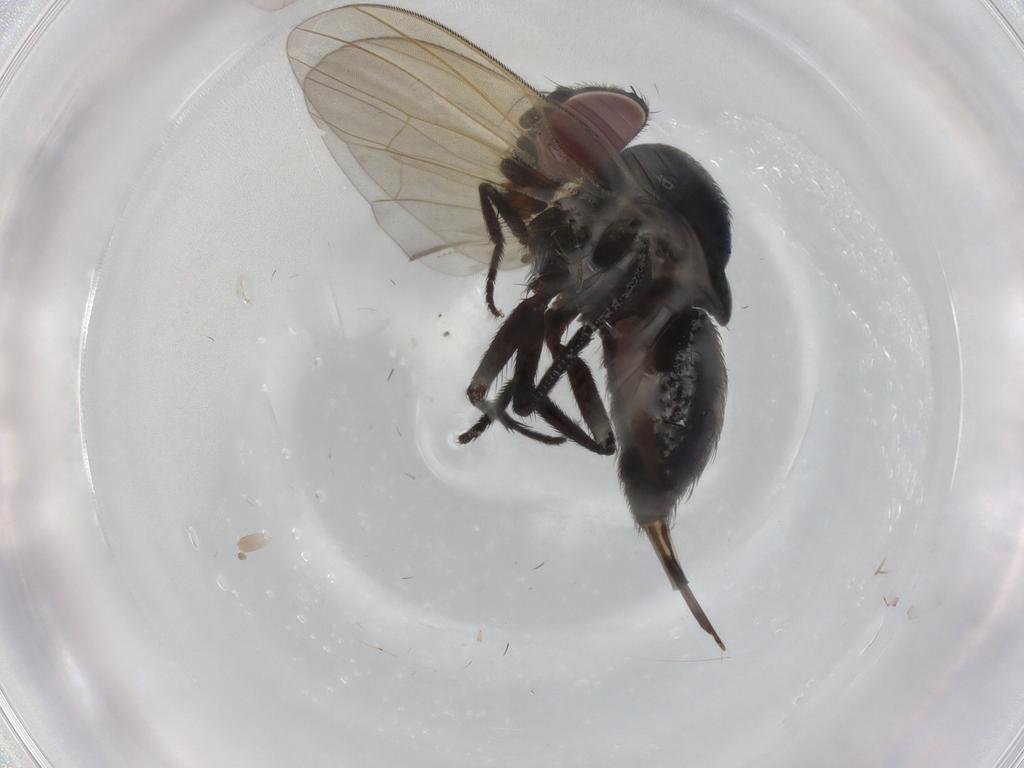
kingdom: Animalia
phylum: Arthropoda
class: Insecta
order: Diptera
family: Sciaridae
